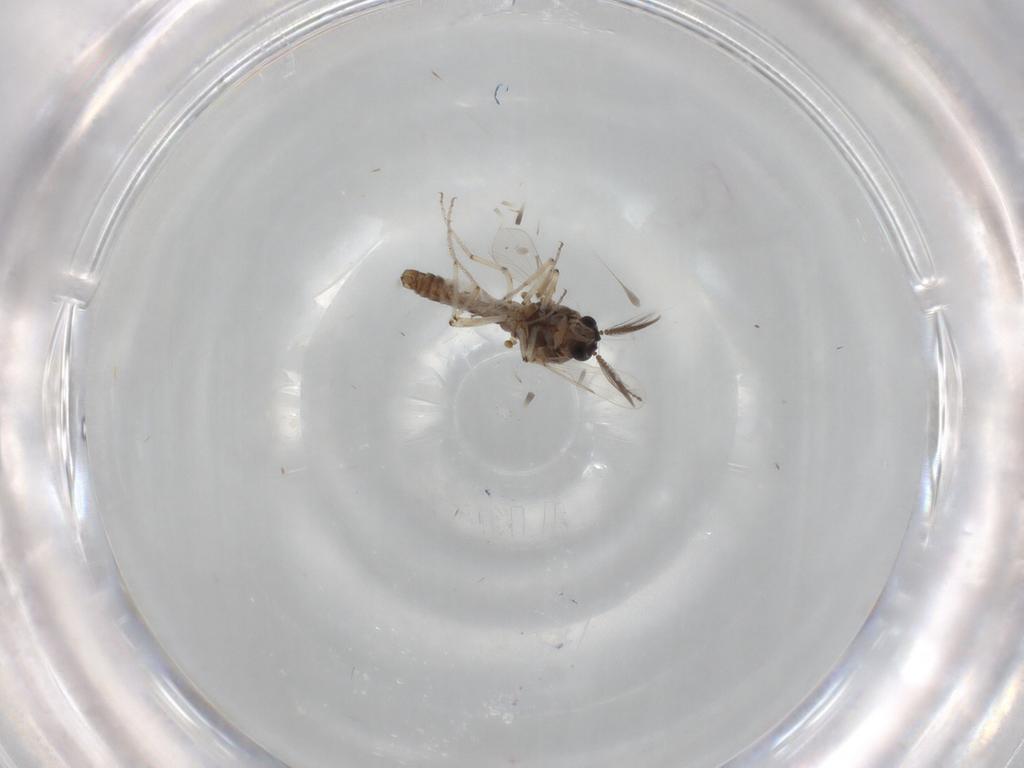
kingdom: Animalia
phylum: Arthropoda
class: Insecta
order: Diptera
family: Ceratopogonidae
